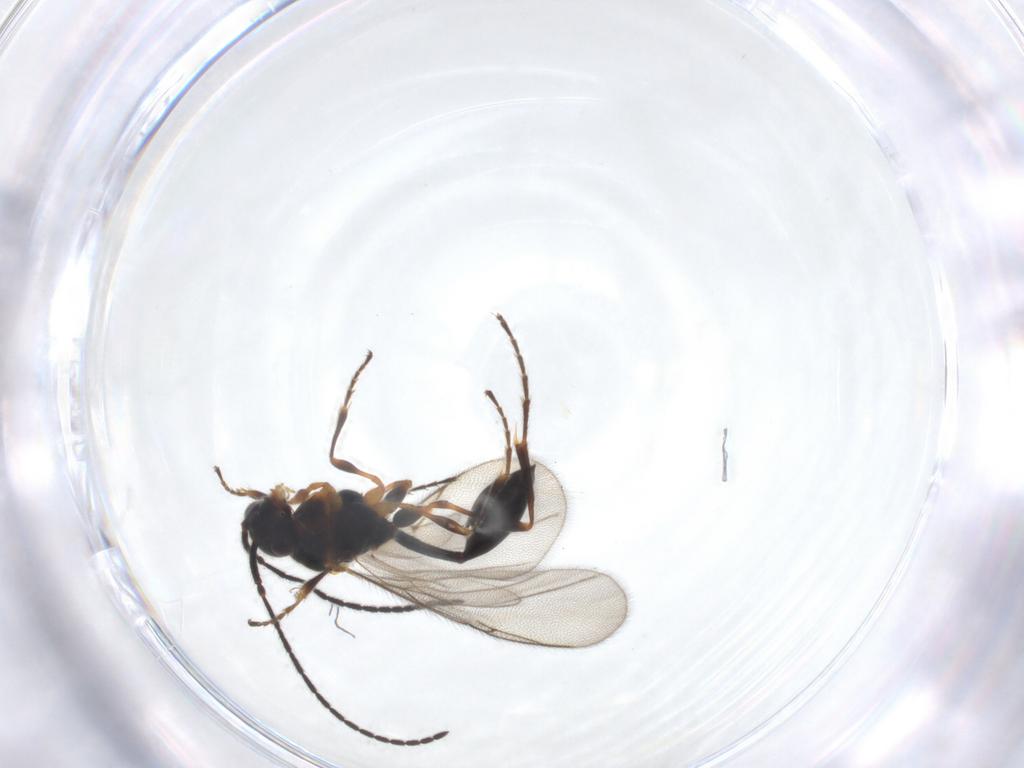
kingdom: Animalia
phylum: Arthropoda
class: Insecta
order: Hymenoptera
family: Diapriidae
